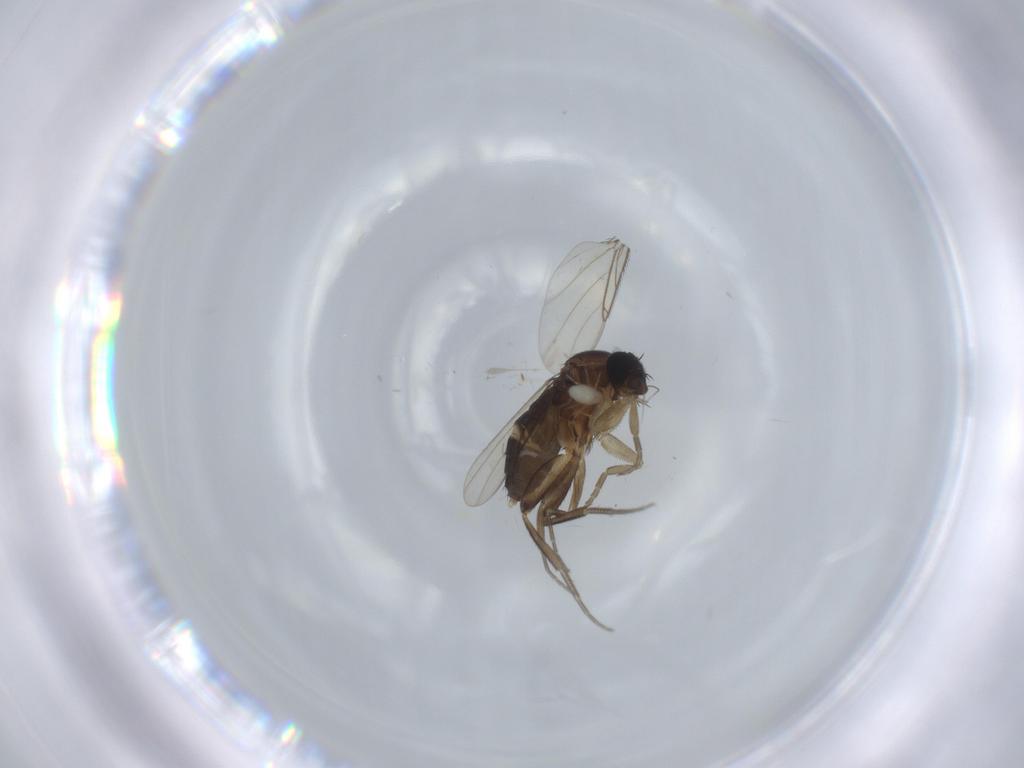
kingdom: Animalia
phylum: Arthropoda
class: Insecta
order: Diptera
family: Phoridae
